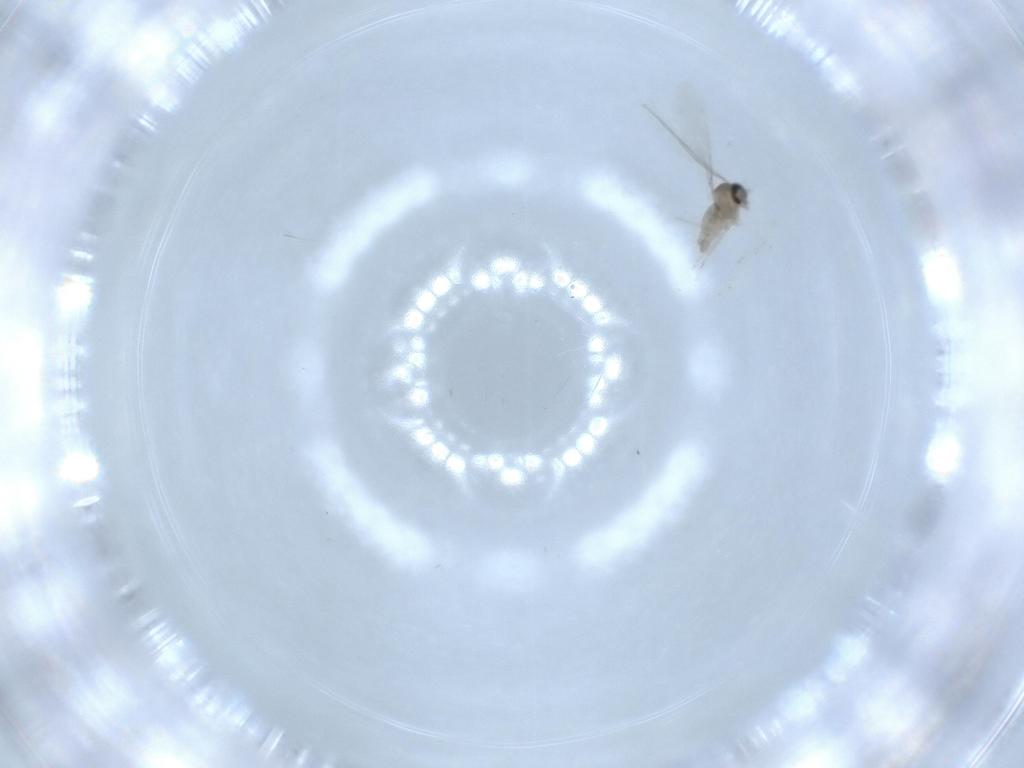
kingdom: Animalia
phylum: Arthropoda
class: Insecta
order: Diptera
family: Cecidomyiidae
